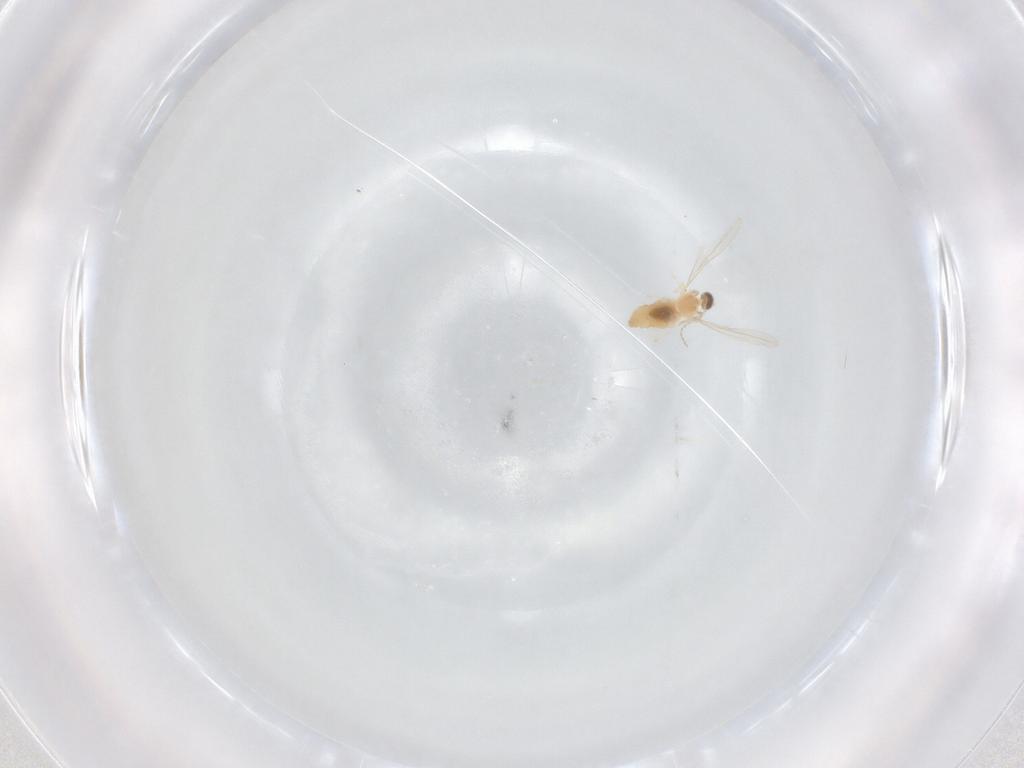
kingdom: Animalia
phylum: Arthropoda
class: Insecta
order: Diptera
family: Cecidomyiidae
